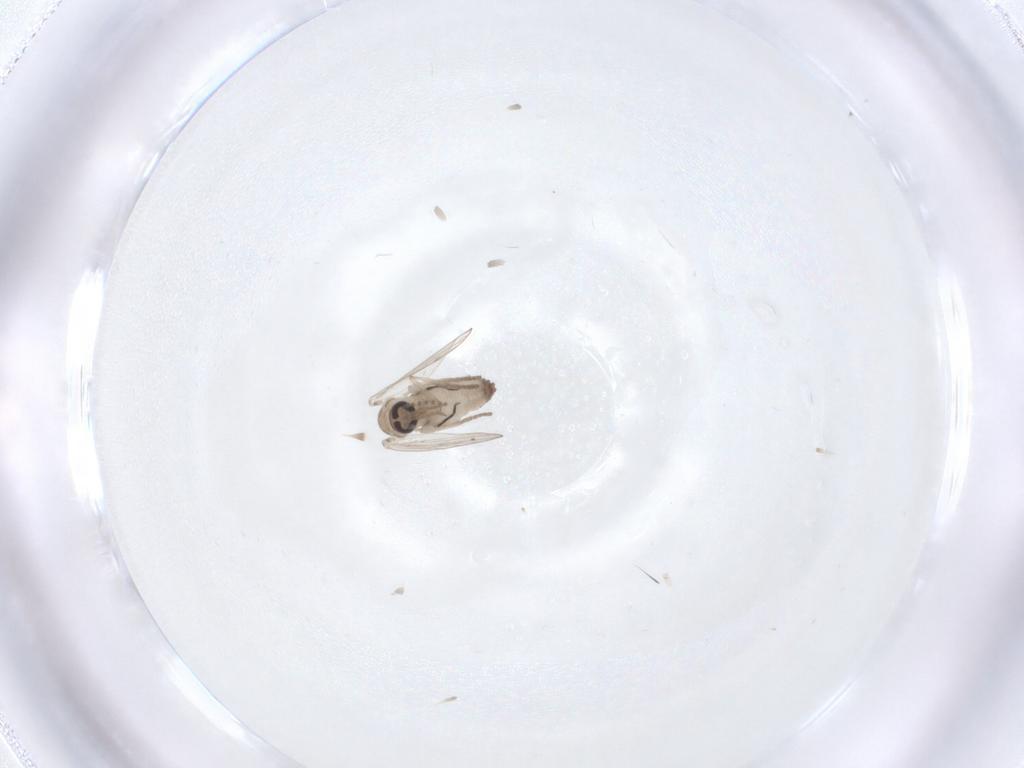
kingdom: Animalia
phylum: Arthropoda
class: Insecta
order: Diptera
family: Psychodidae
